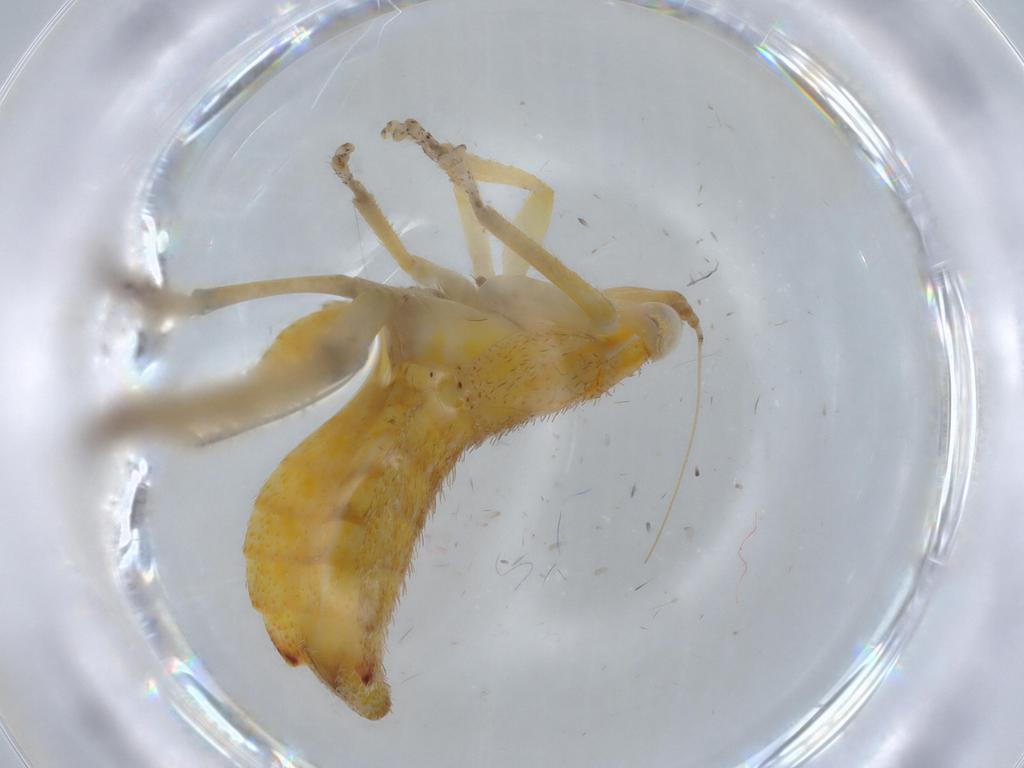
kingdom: Animalia
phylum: Arthropoda
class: Insecta
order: Hemiptera
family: Cicadellidae
